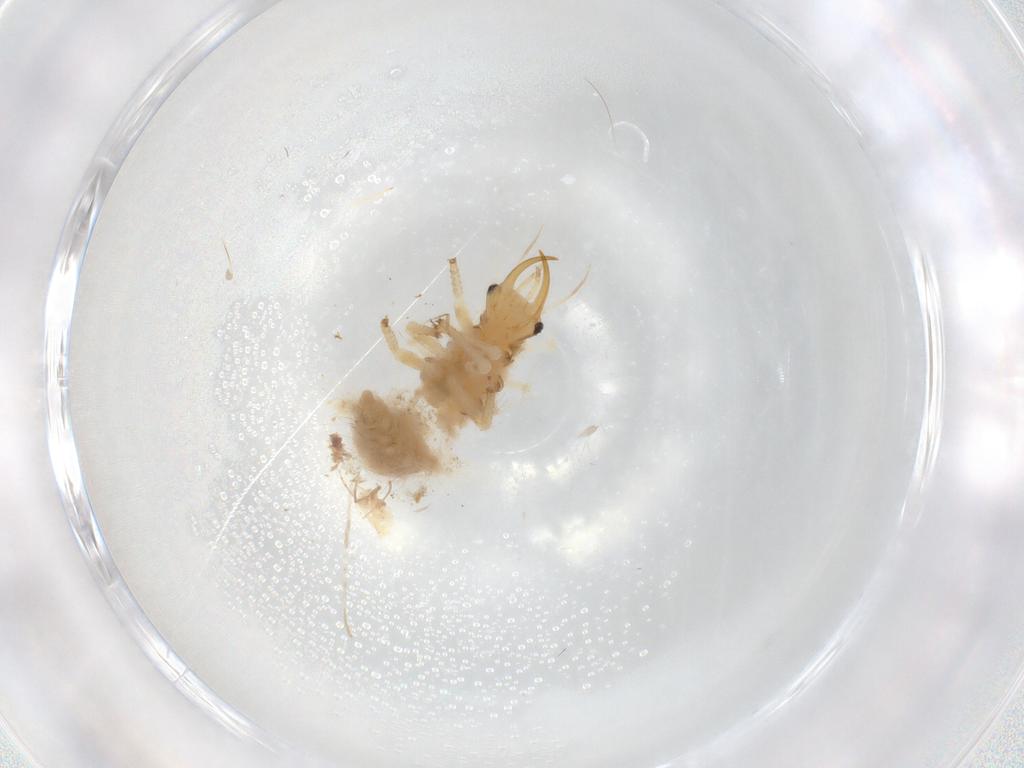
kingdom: Animalia
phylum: Arthropoda
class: Insecta
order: Neuroptera
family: Chrysopidae
